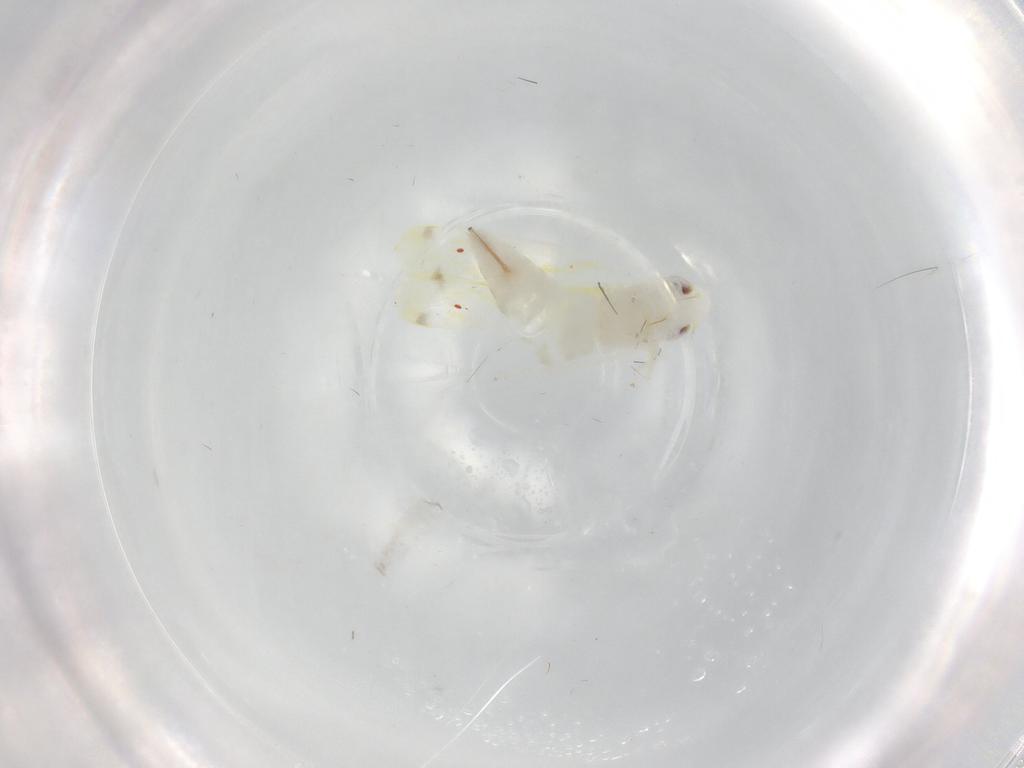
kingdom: Animalia
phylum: Arthropoda
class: Insecta
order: Hemiptera
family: Cicadellidae
